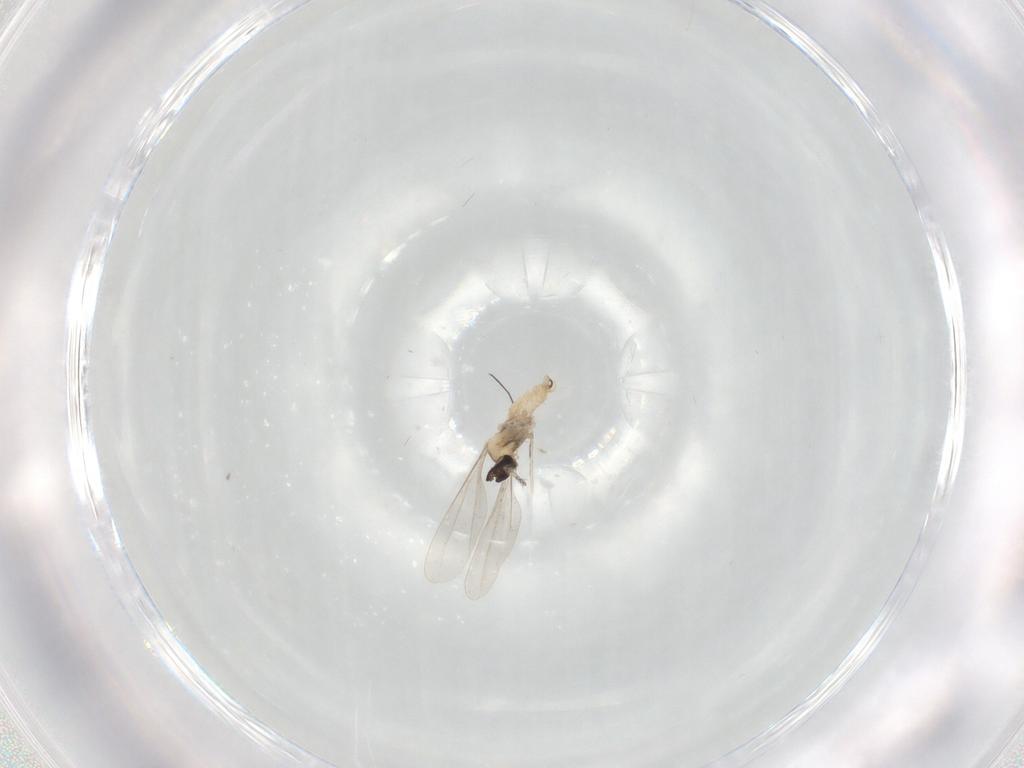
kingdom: Animalia
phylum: Arthropoda
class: Insecta
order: Diptera
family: Cecidomyiidae
